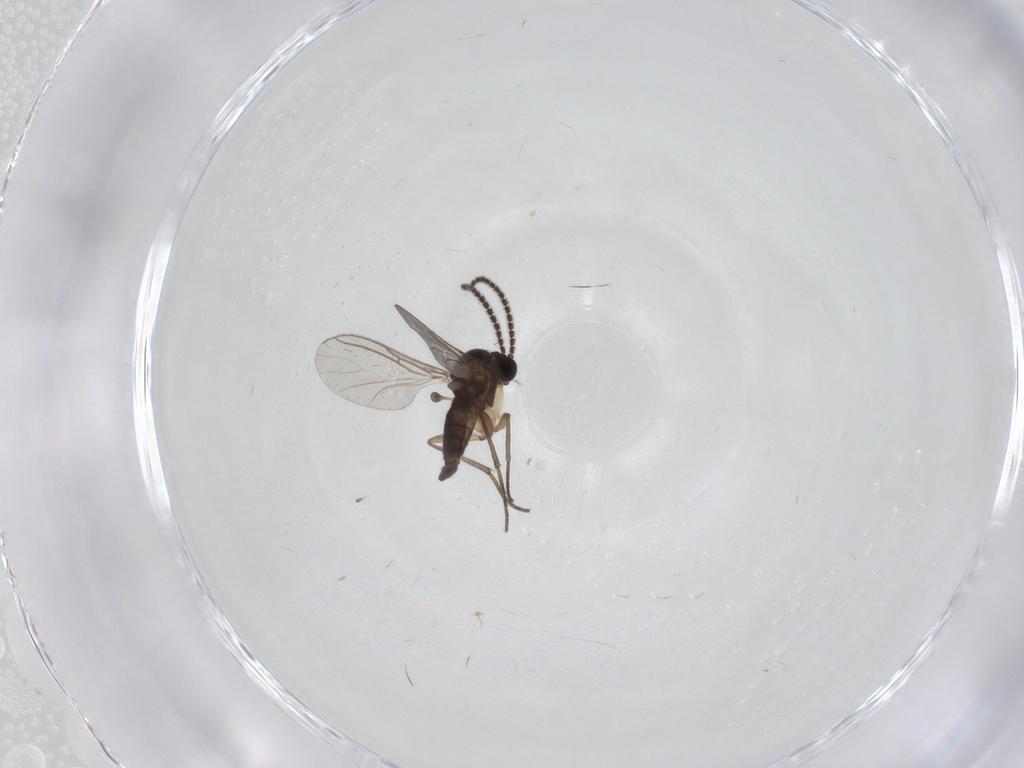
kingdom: Animalia
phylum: Arthropoda
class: Insecta
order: Diptera
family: Sciaridae
